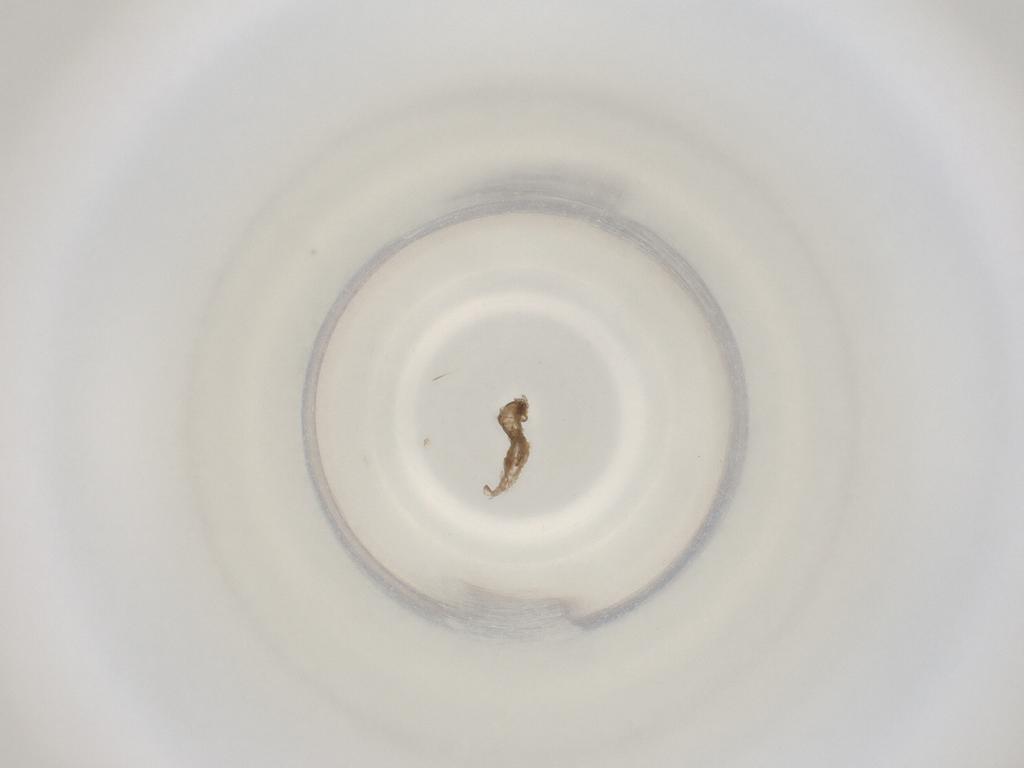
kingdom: Animalia
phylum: Arthropoda
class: Insecta
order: Diptera
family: Cecidomyiidae
